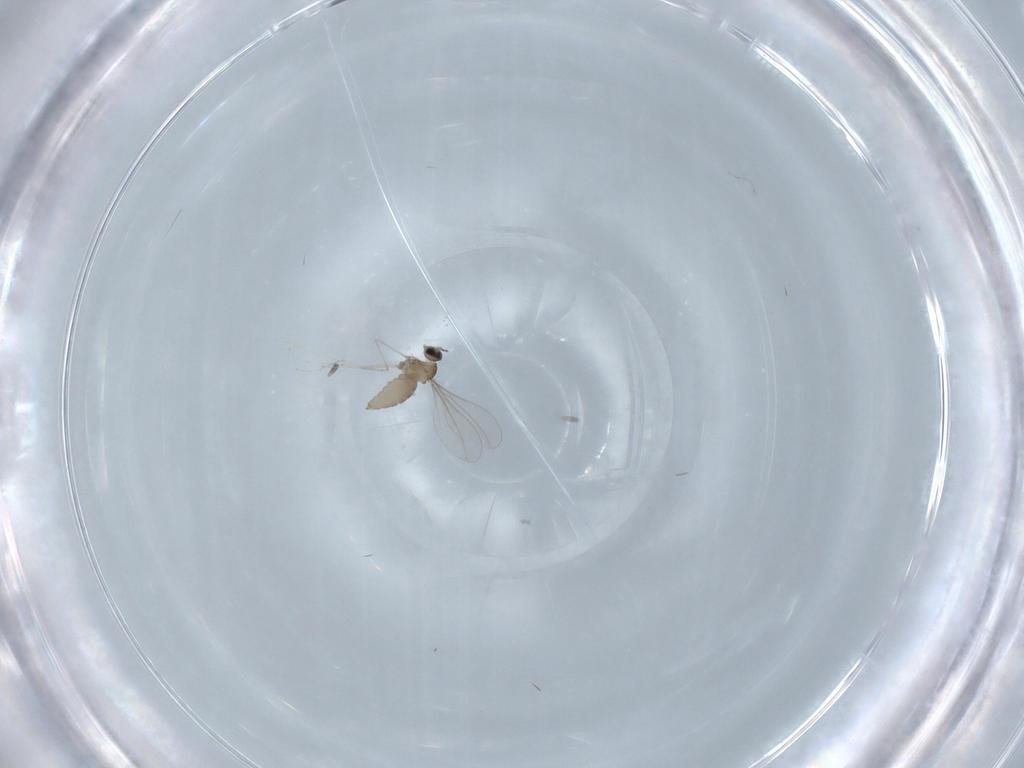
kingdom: Animalia
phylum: Arthropoda
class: Insecta
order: Diptera
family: Cecidomyiidae
